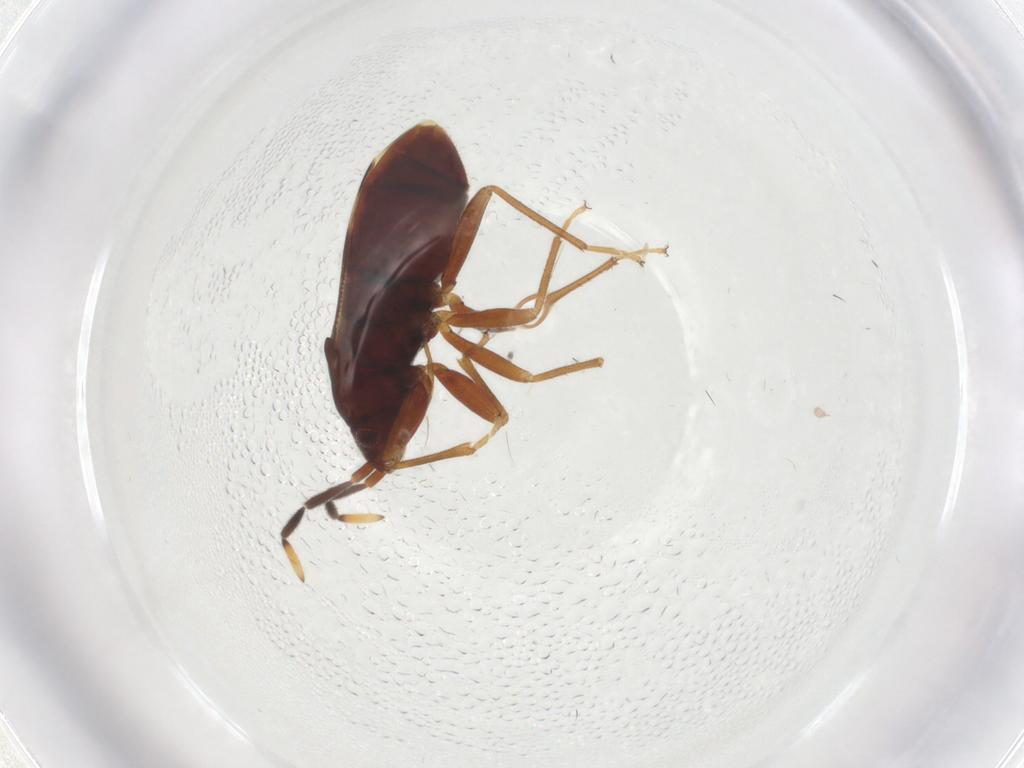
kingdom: Animalia
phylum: Arthropoda
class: Insecta
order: Hemiptera
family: Rhyparochromidae
